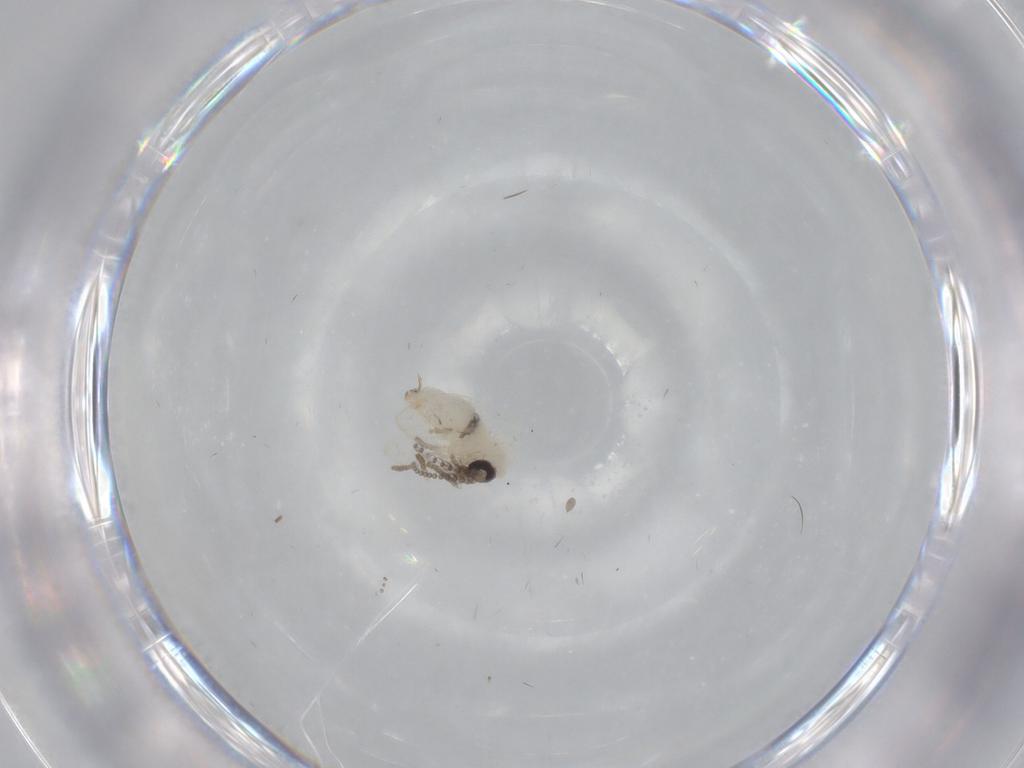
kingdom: Animalia
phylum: Arthropoda
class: Insecta
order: Diptera
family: Psychodidae
